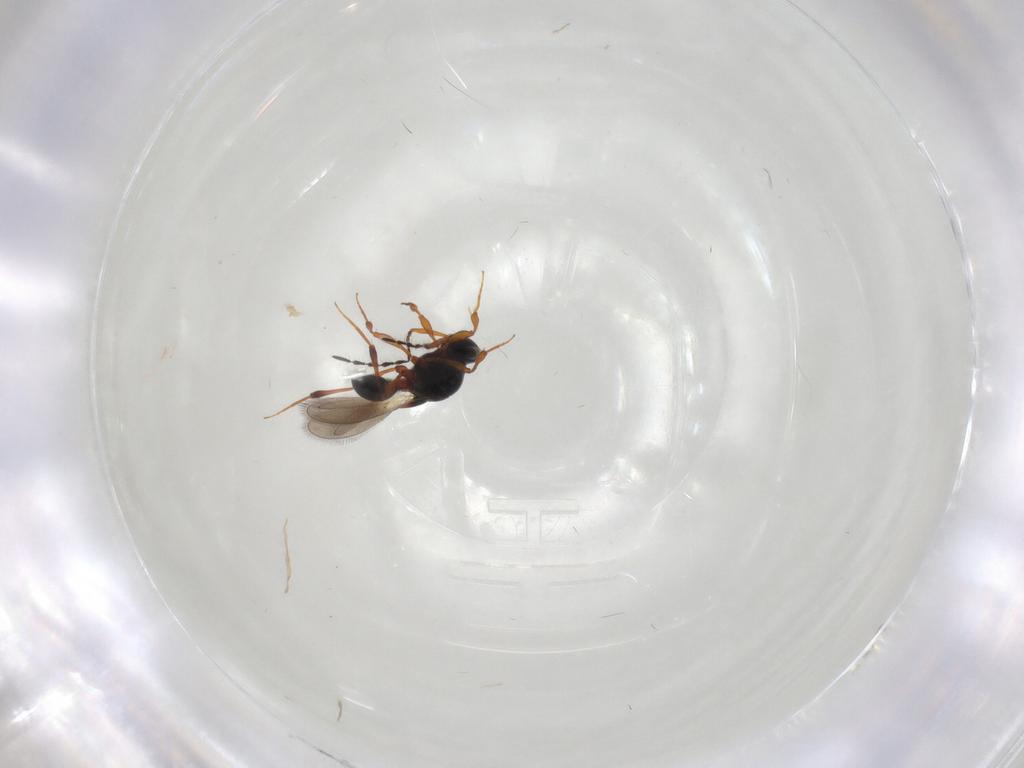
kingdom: Animalia
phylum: Arthropoda
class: Insecta
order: Hymenoptera
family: Platygastridae
